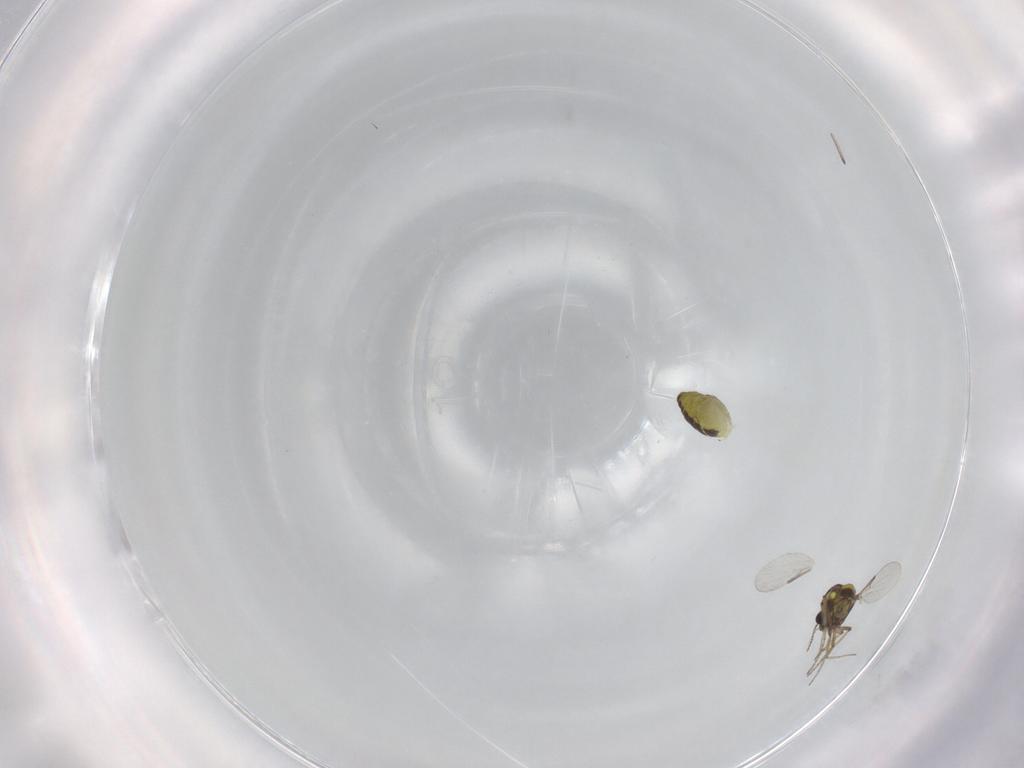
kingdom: Animalia
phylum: Arthropoda
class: Insecta
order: Diptera
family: Ceratopogonidae
